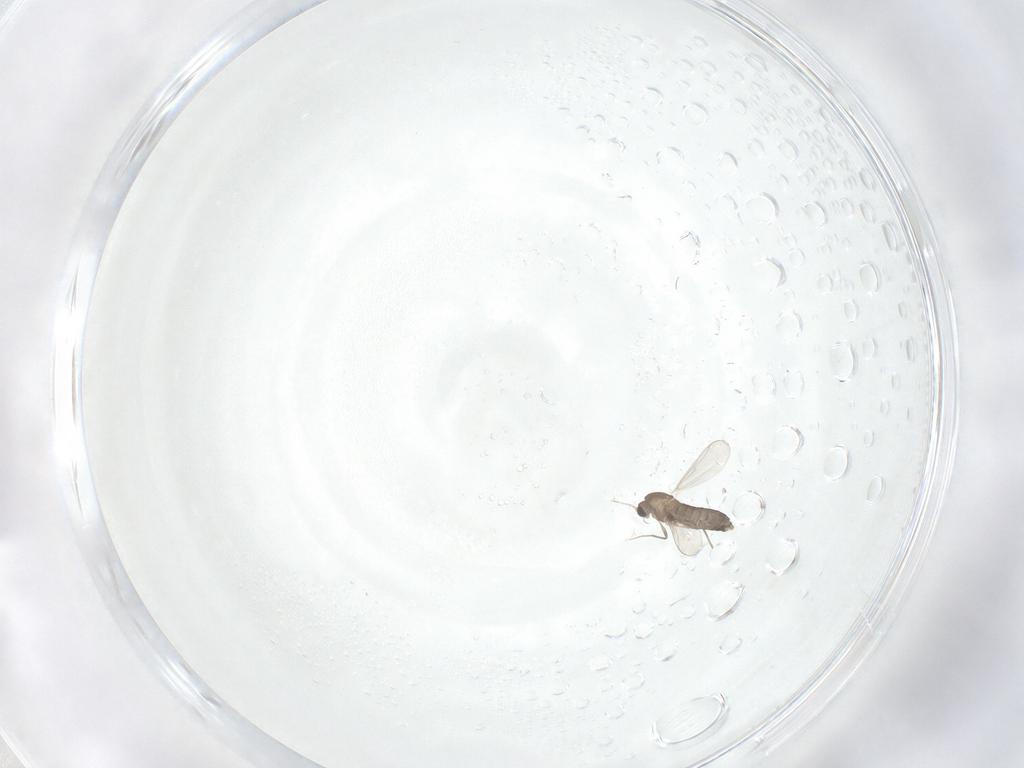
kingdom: Animalia
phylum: Arthropoda
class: Insecta
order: Diptera
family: Chironomidae
